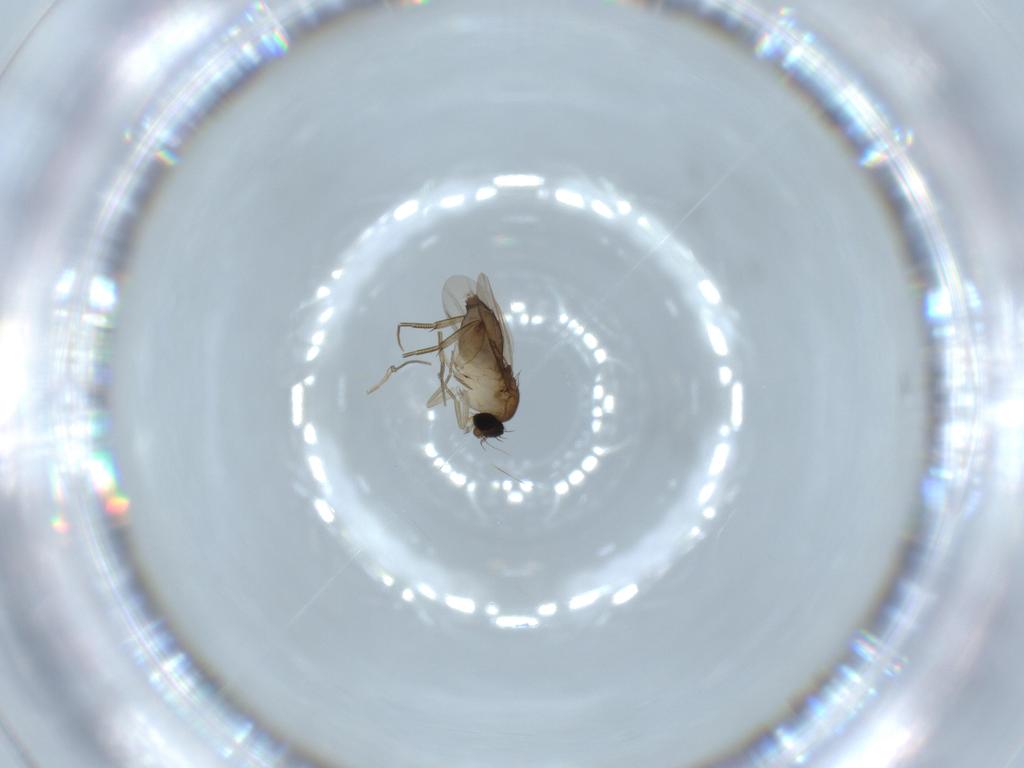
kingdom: Animalia
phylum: Arthropoda
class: Insecta
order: Diptera
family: Phoridae
